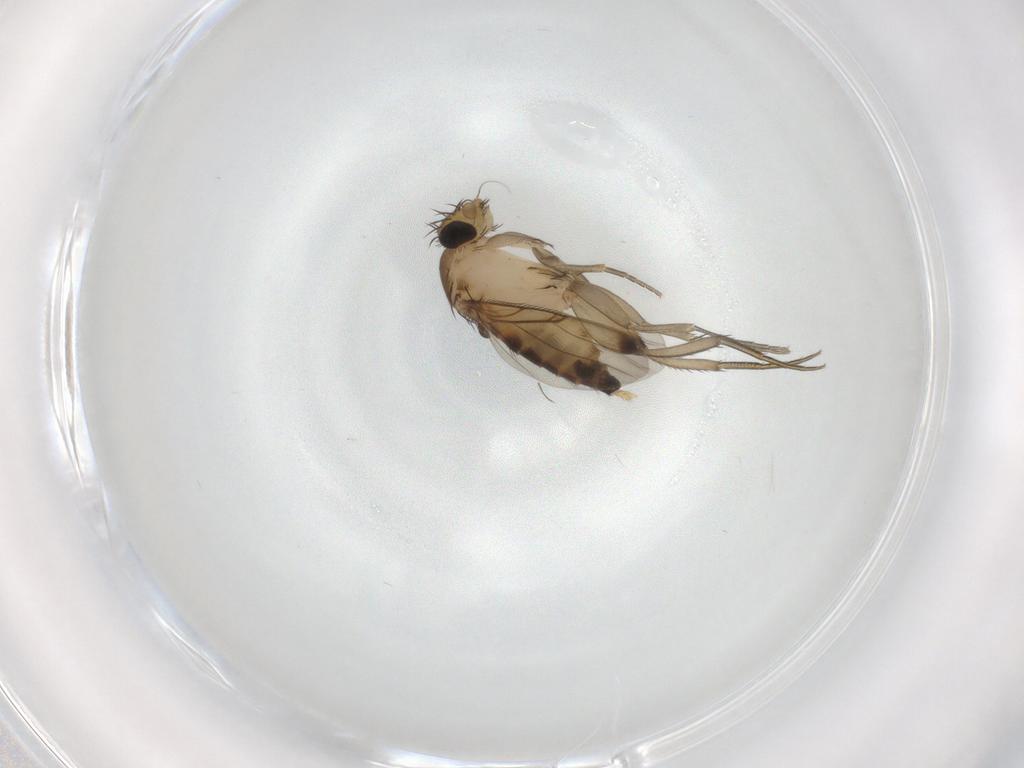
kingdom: Animalia
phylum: Arthropoda
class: Insecta
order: Diptera
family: Phoridae
